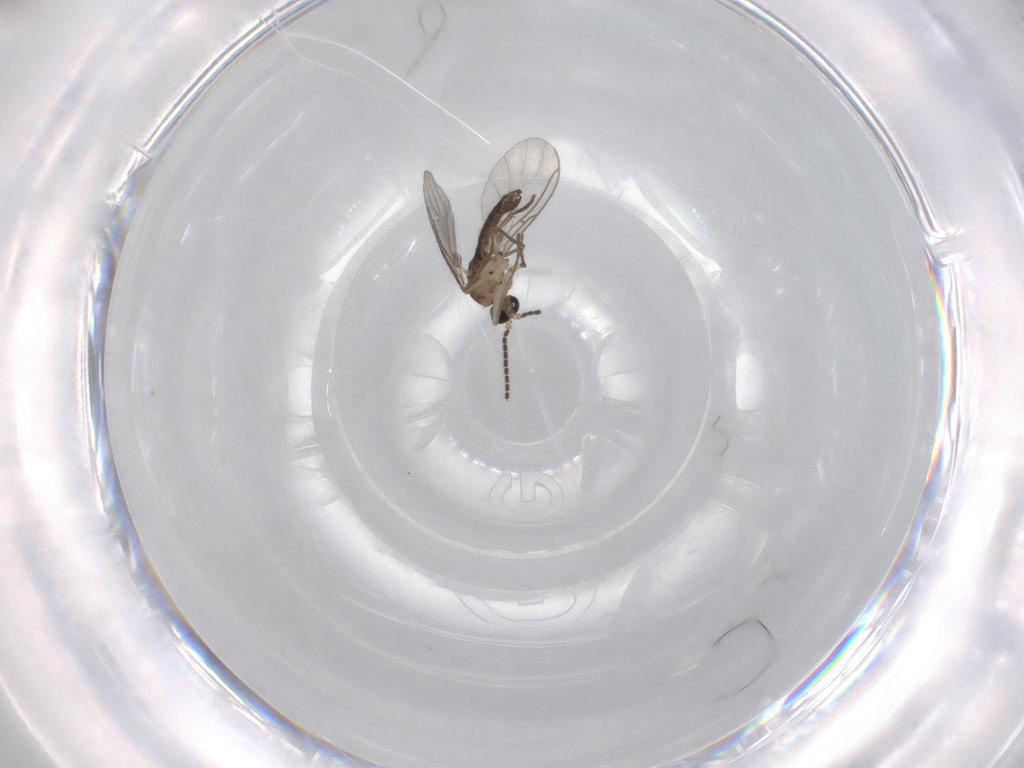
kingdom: Animalia
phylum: Arthropoda
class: Insecta
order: Diptera
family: Sciaridae
